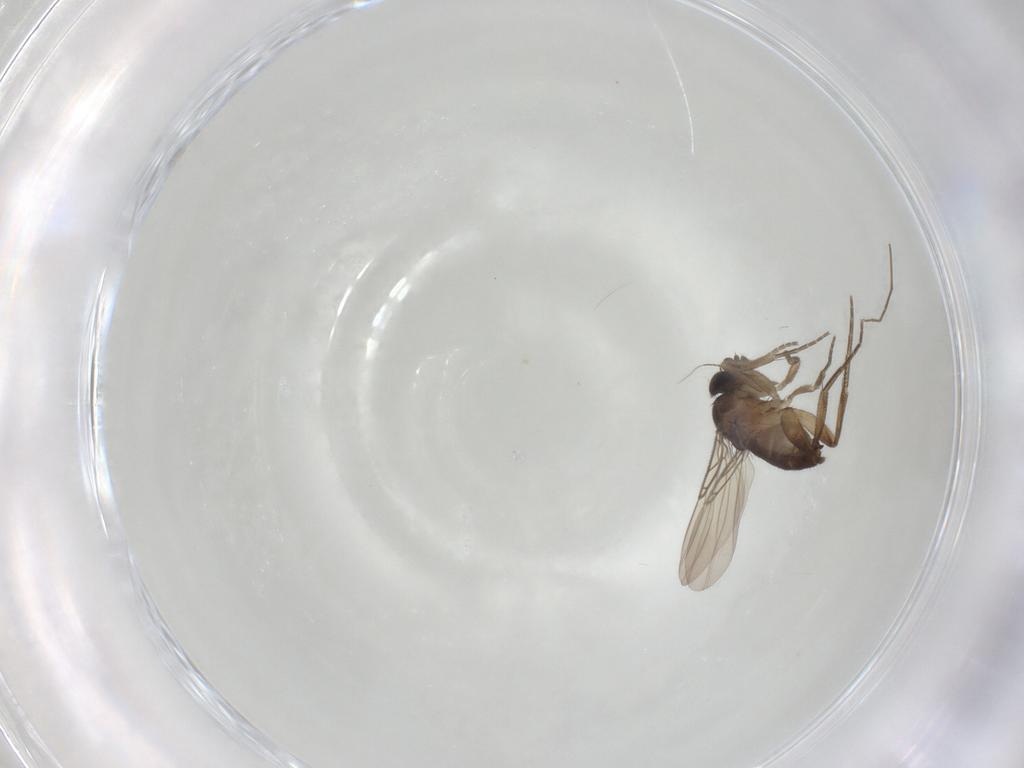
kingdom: Animalia
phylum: Arthropoda
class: Insecta
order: Diptera
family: Phoridae
